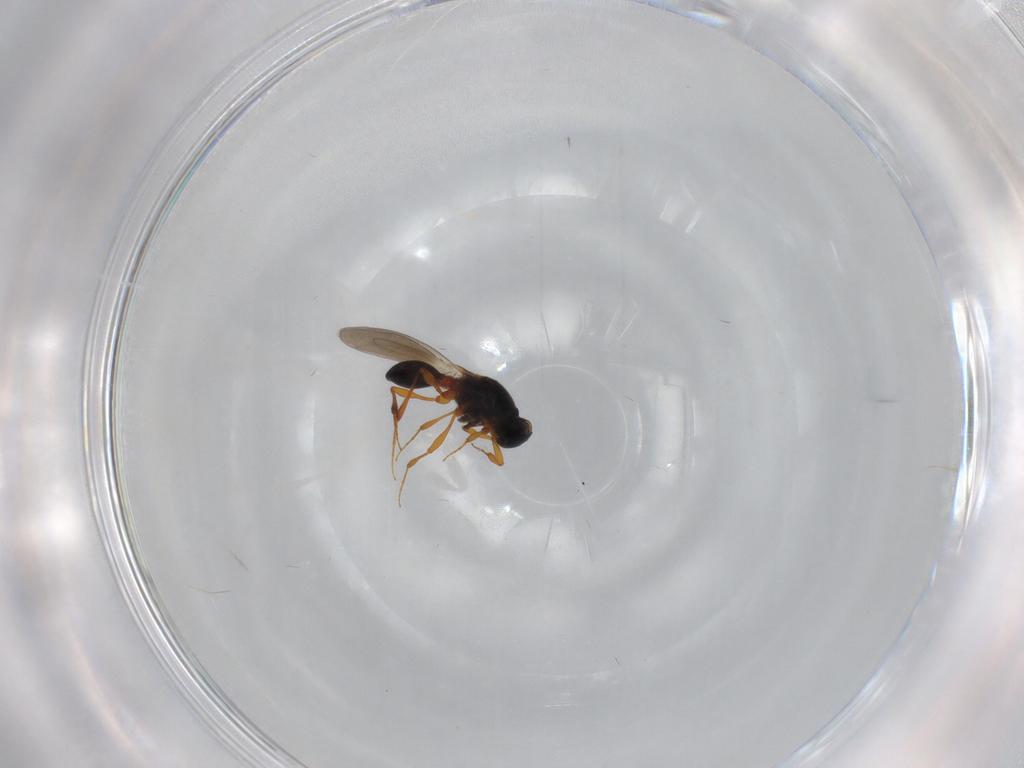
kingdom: Animalia
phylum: Arthropoda
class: Insecta
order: Hymenoptera
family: Platygastridae
